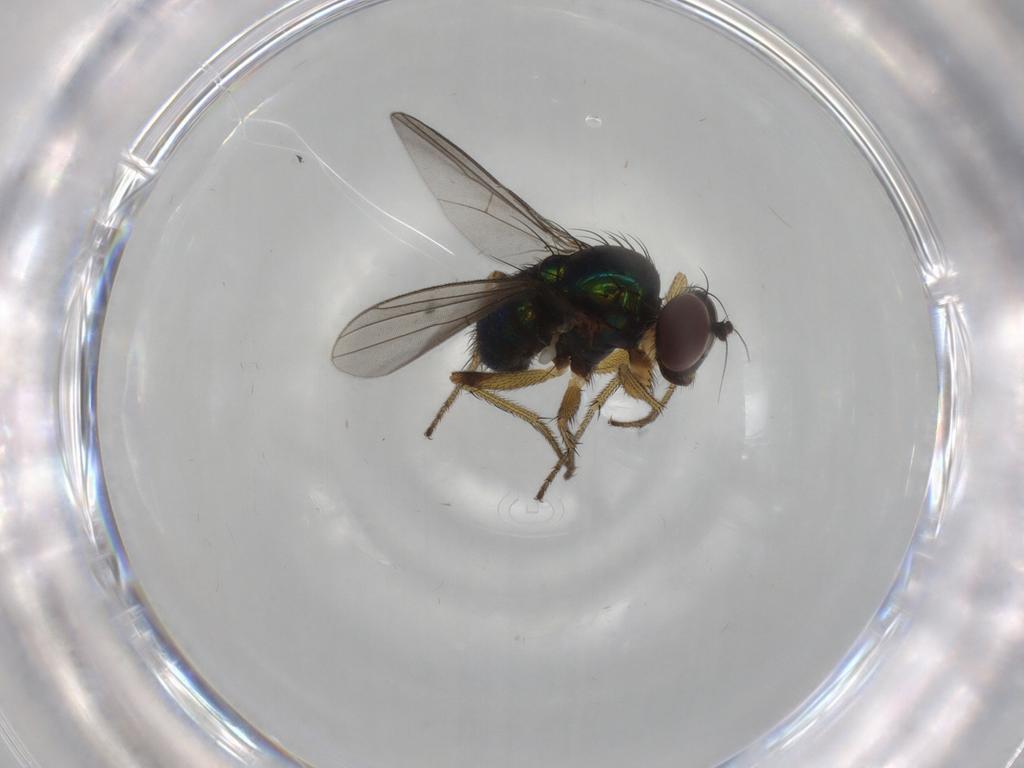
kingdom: Animalia
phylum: Arthropoda
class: Insecta
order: Diptera
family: Dolichopodidae
